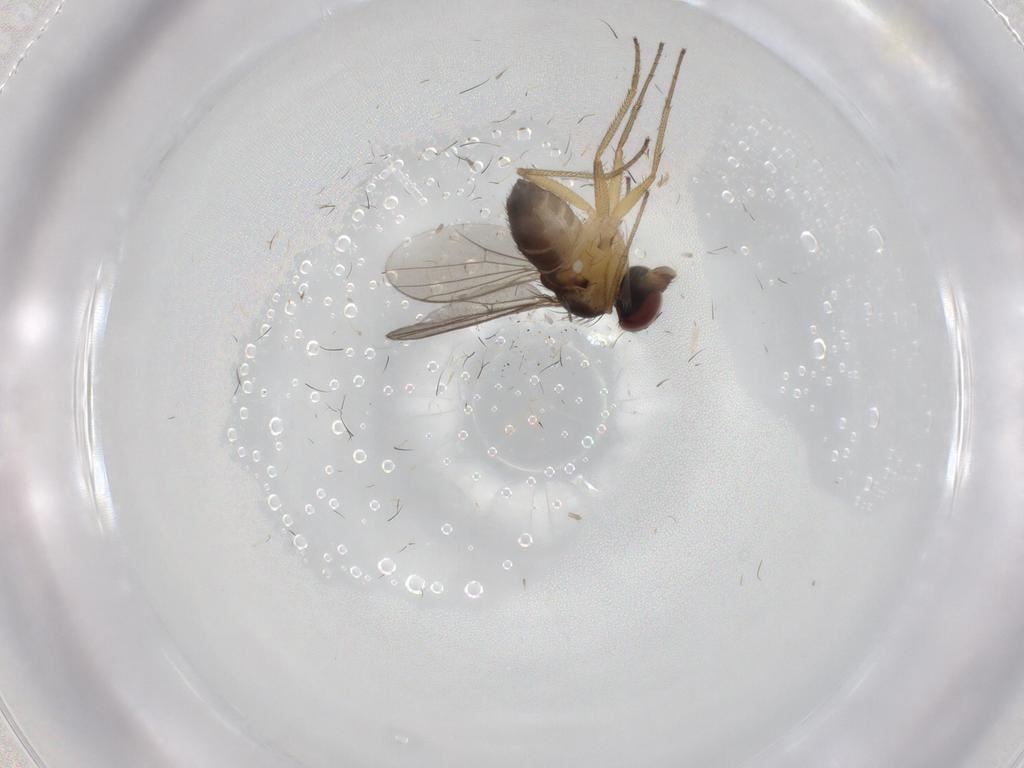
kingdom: Animalia
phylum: Arthropoda
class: Insecta
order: Diptera
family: Dolichopodidae
